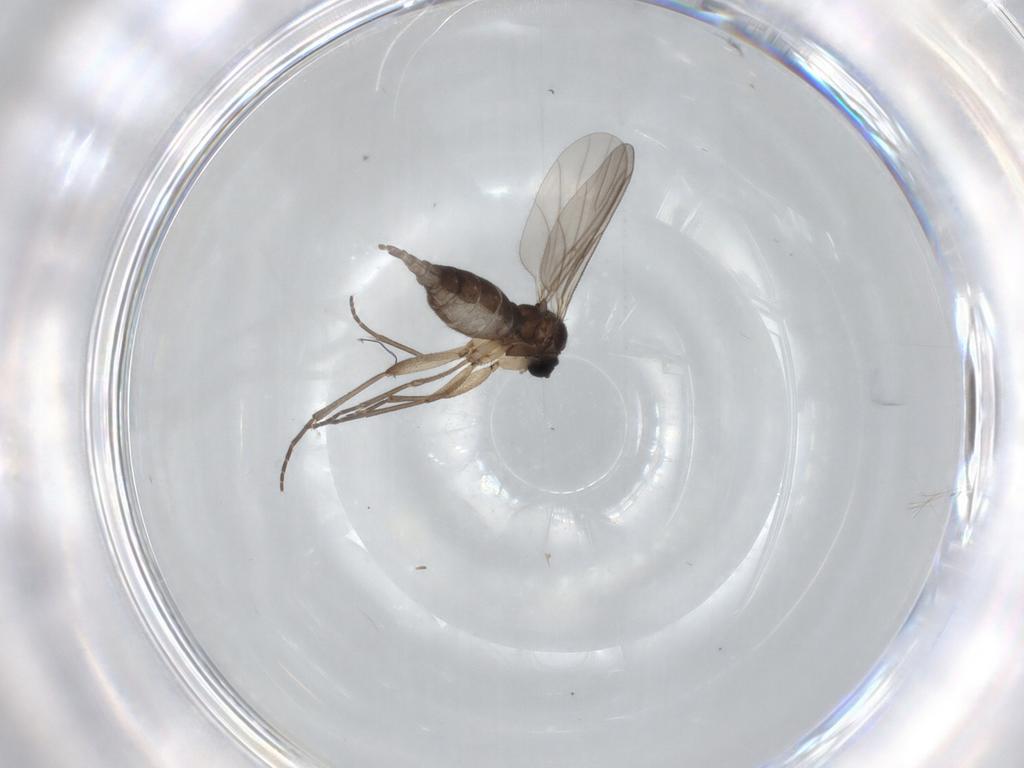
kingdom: Animalia
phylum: Arthropoda
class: Insecta
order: Diptera
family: Sciaridae
